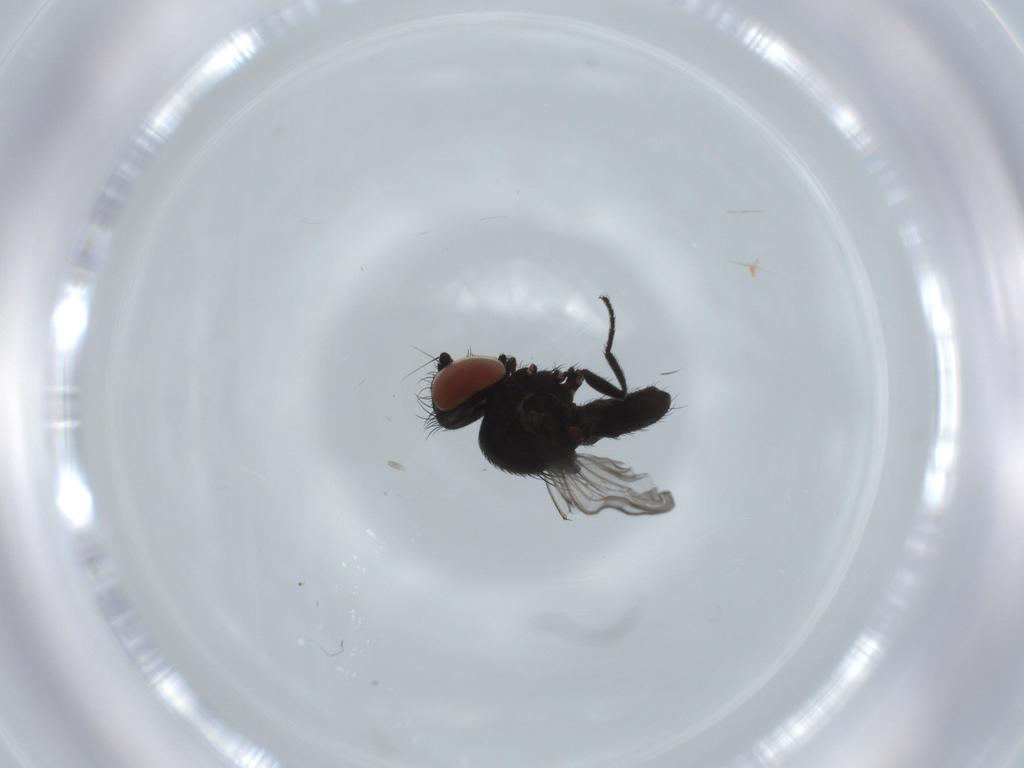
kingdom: Animalia
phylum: Arthropoda
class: Insecta
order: Diptera
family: Milichiidae
